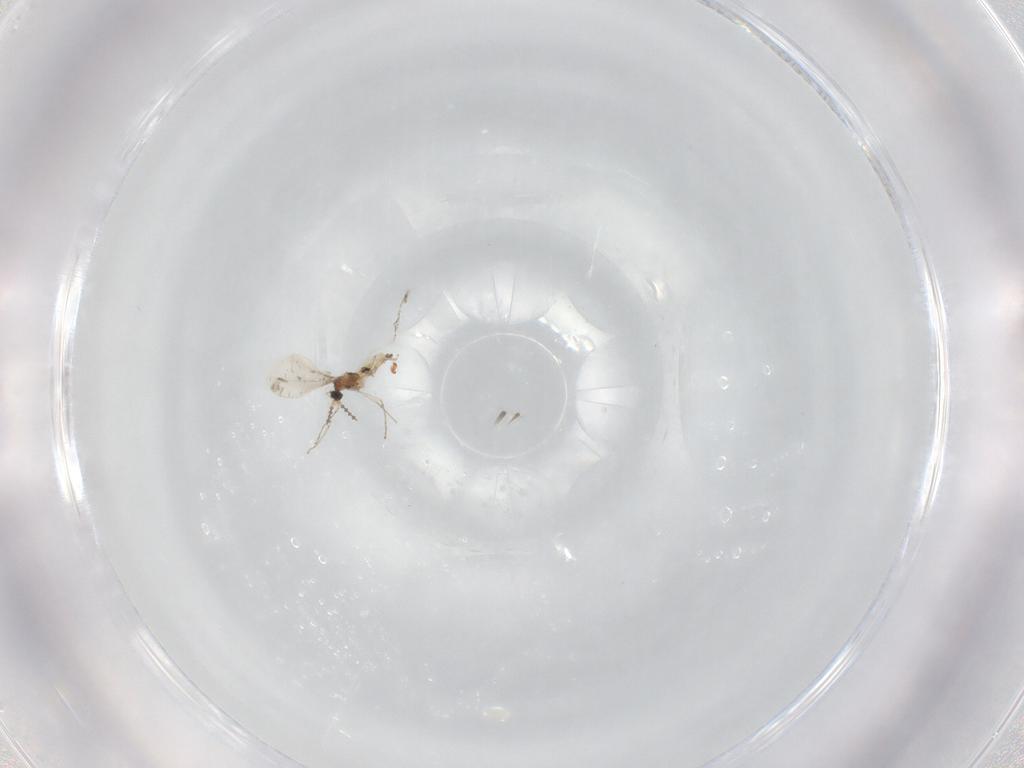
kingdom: Animalia
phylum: Arthropoda
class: Insecta
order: Diptera
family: Cecidomyiidae
